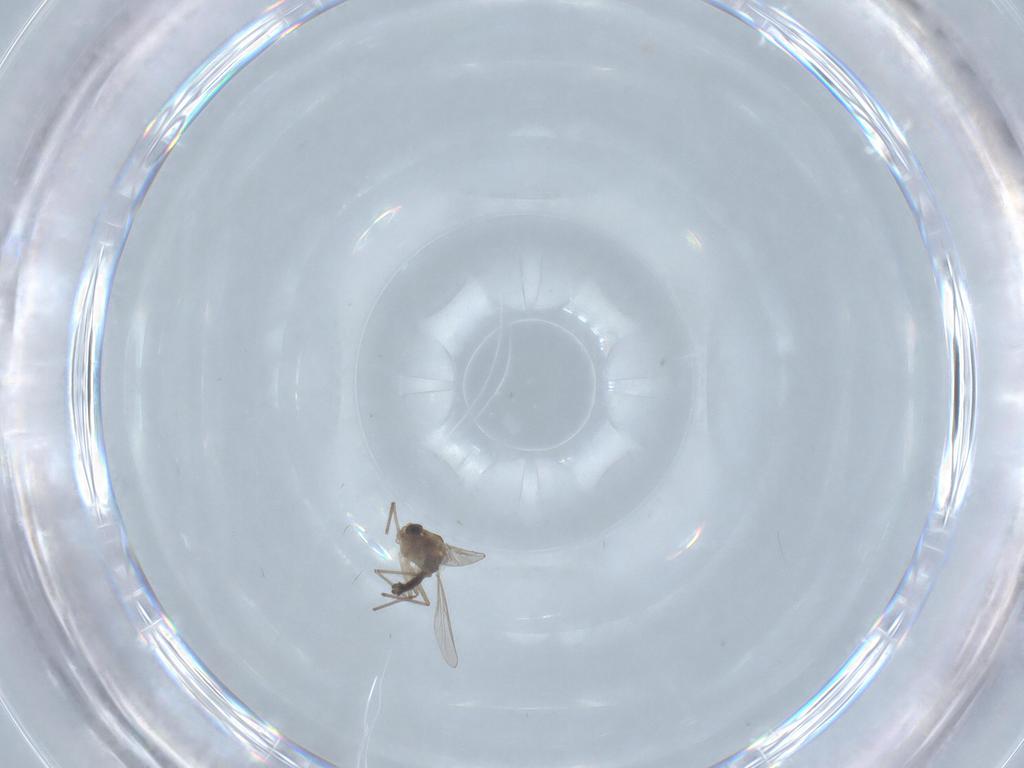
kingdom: Animalia
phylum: Arthropoda
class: Insecta
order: Diptera
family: Chironomidae
